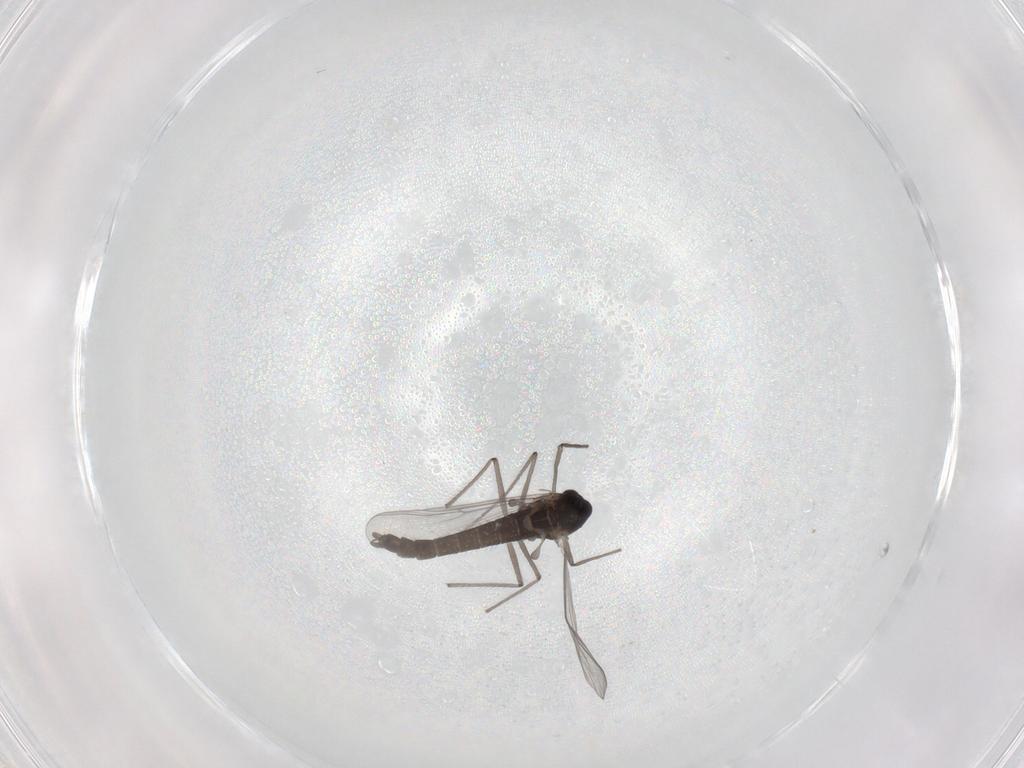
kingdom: Animalia
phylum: Arthropoda
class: Insecta
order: Diptera
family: Chironomidae
